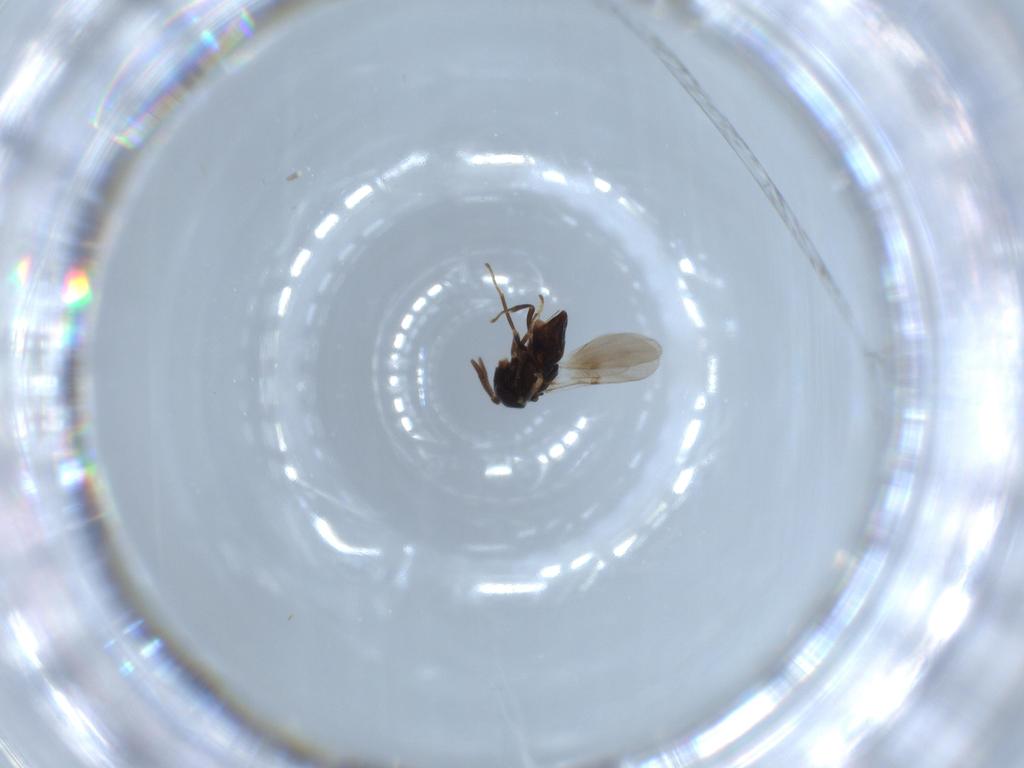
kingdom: Animalia
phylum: Arthropoda
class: Insecta
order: Hymenoptera
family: Pteromalidae
